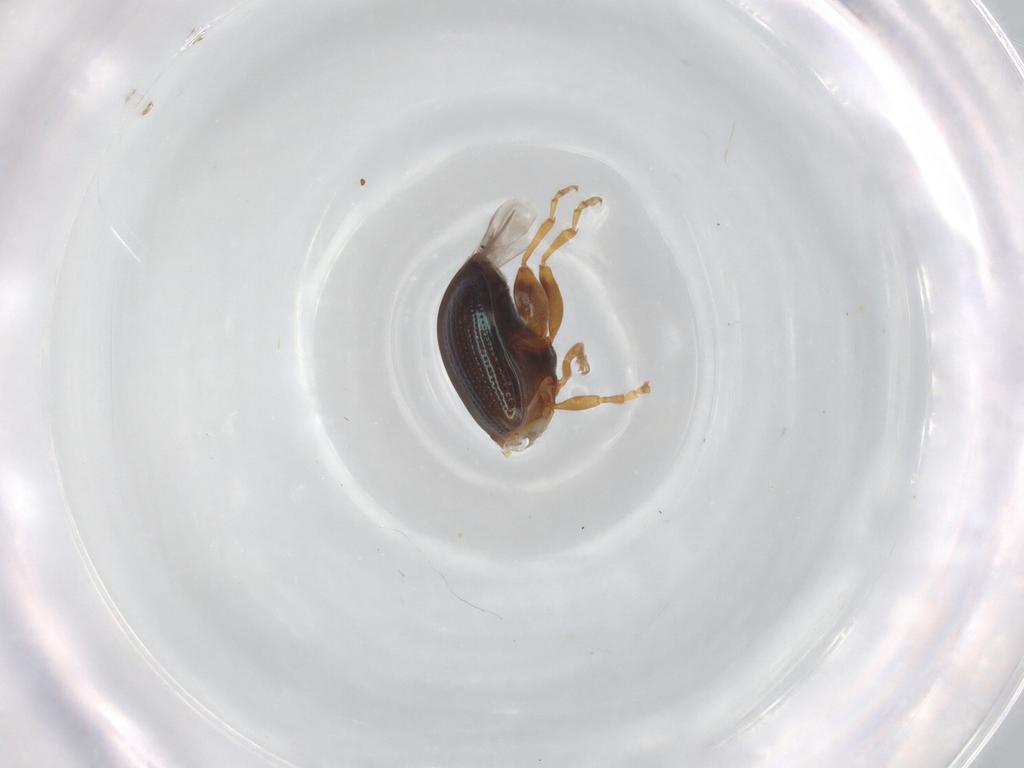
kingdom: Animalia
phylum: Arthropoda
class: Insecta
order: Coleoptera
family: Chrysomelidae
